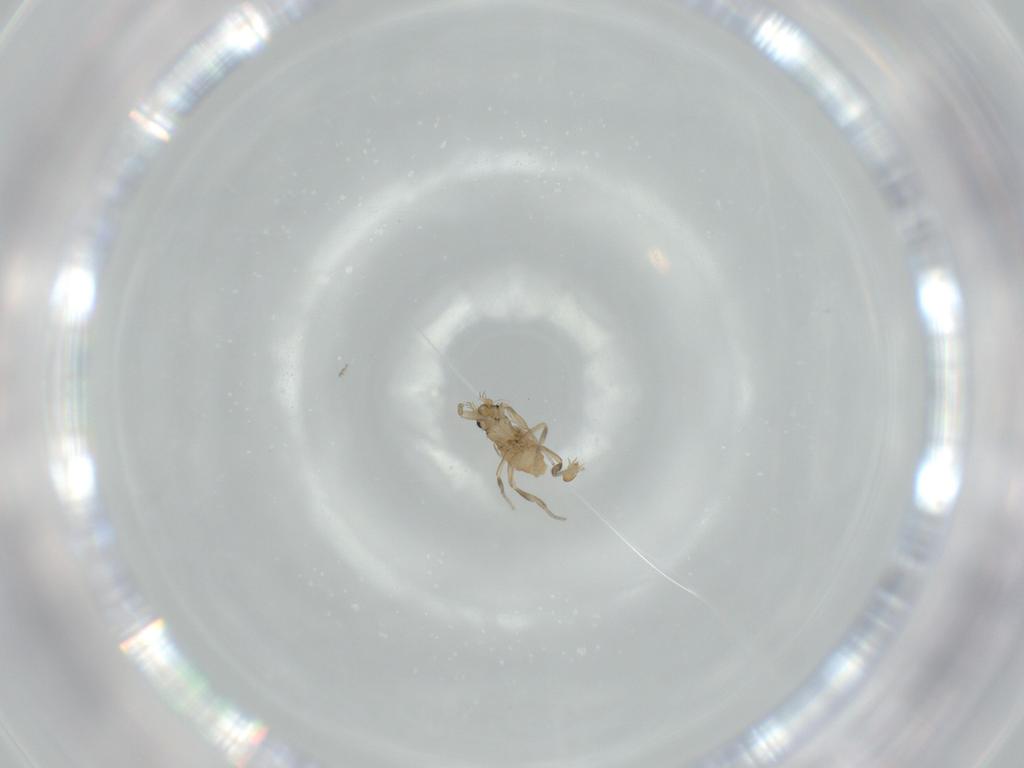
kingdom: Animalia
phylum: Arthropoda
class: Insecta
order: Diptera
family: Phoridae
